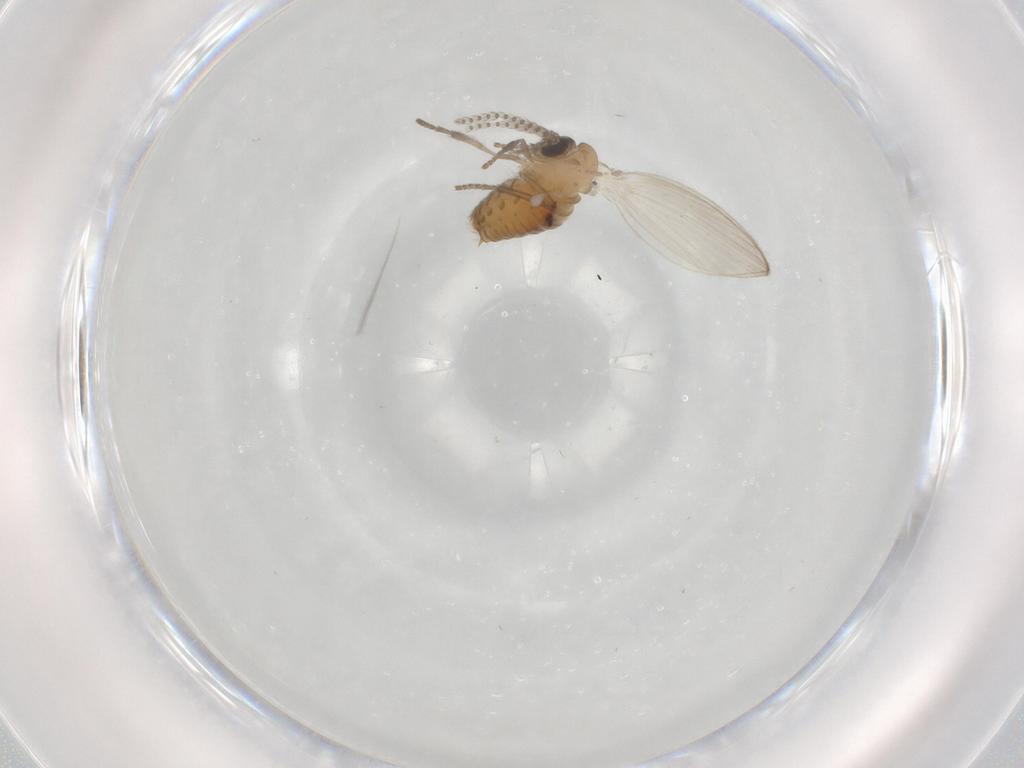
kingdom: Animalia
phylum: Arthropoda
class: Insecta
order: Diptera
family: Psychodidae
